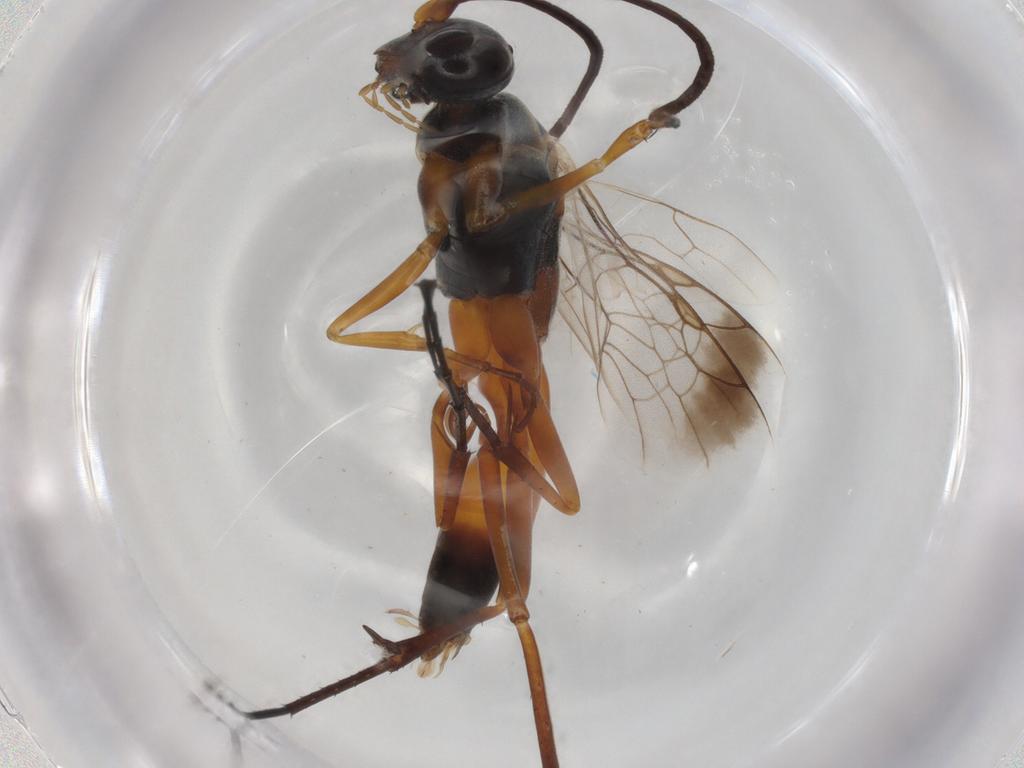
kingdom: Animalia
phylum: Arthropoda
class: Insecta
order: Hymenoptera
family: Pompilidae
